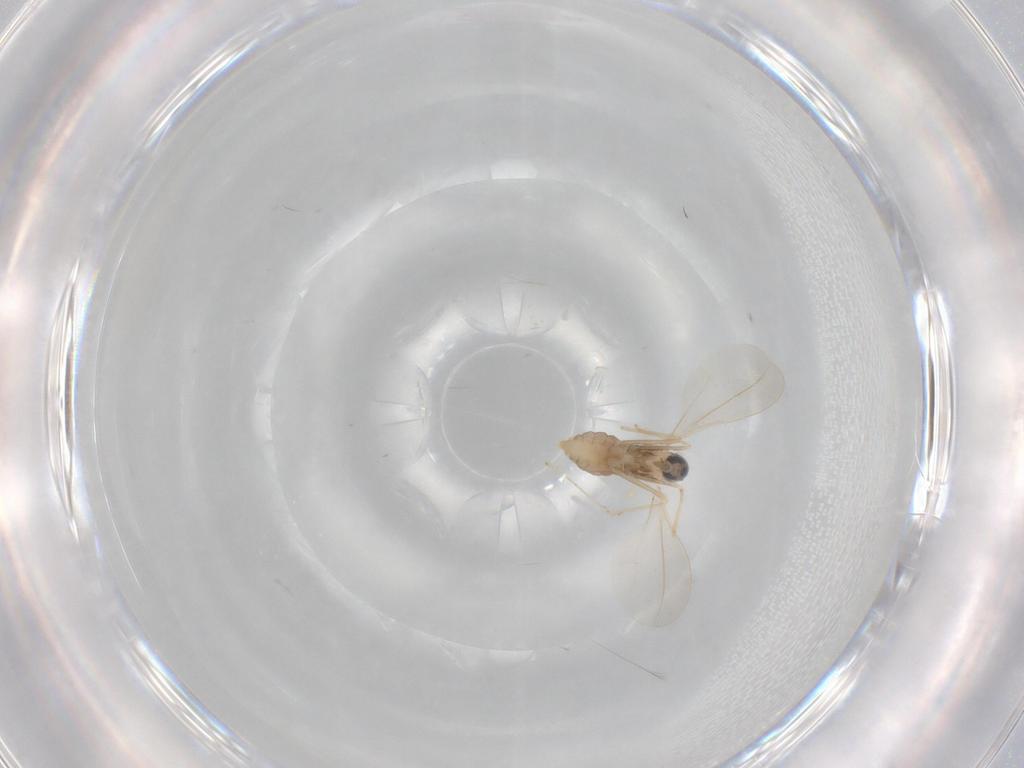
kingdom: Animalia
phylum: Arthropoda
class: Insecta
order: Diptera
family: Cecidomyiidae
